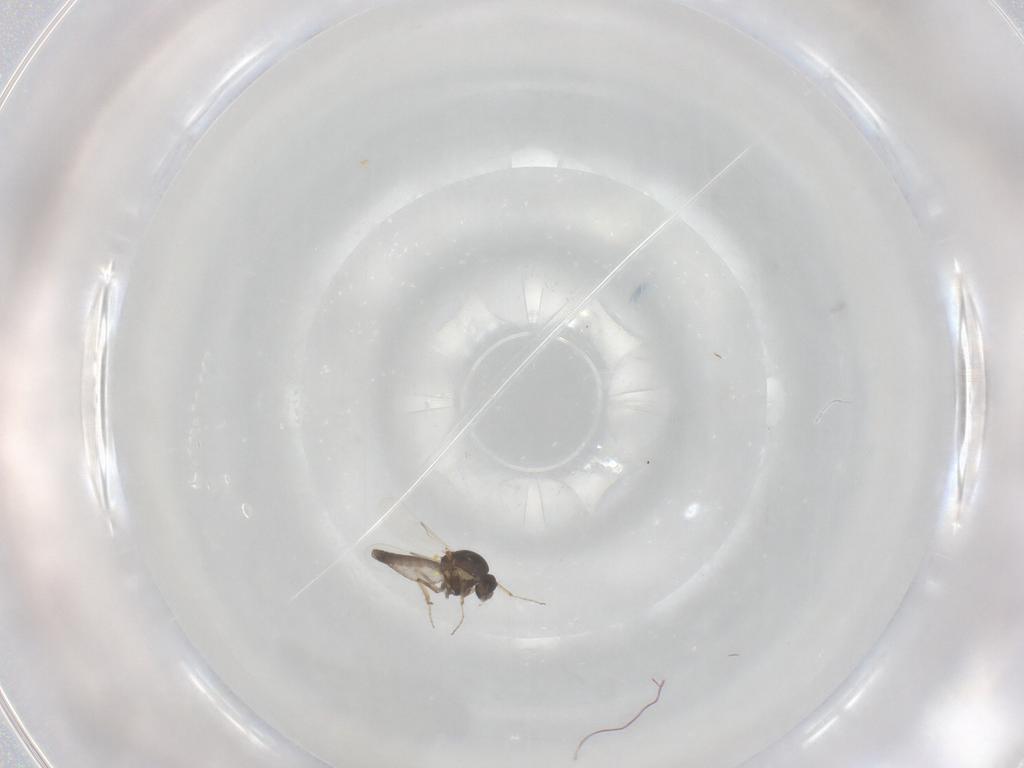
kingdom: Animalia
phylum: Arthropoda
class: Insecta
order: Diptera
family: Ceratopogonidae
